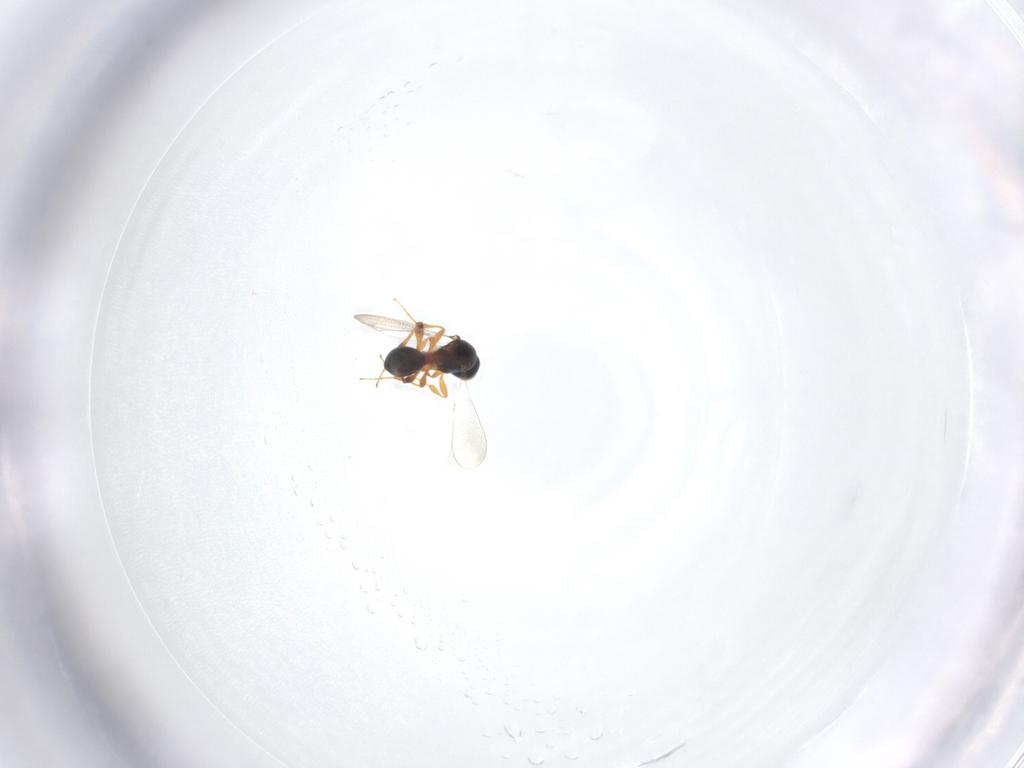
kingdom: Animalia
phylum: Arthropoda
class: Insecta
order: Hymenoptera
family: Platygastridae
